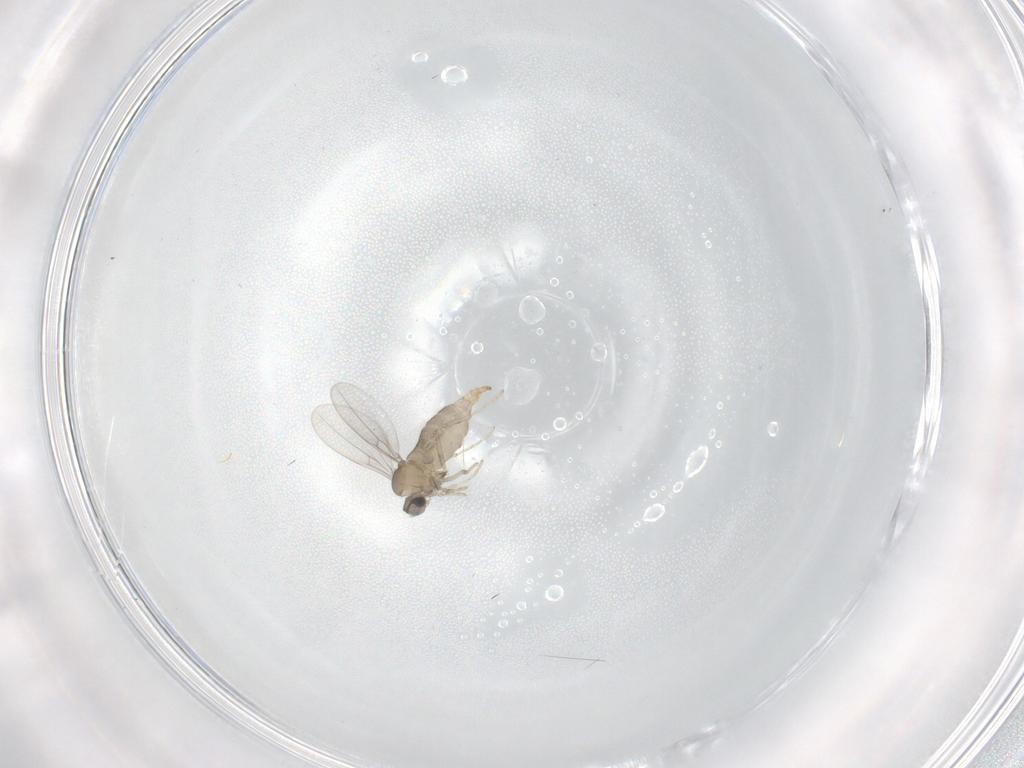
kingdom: Animalia
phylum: Arthropoda
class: Insecta
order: Diptera
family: Cecidomyiidae
